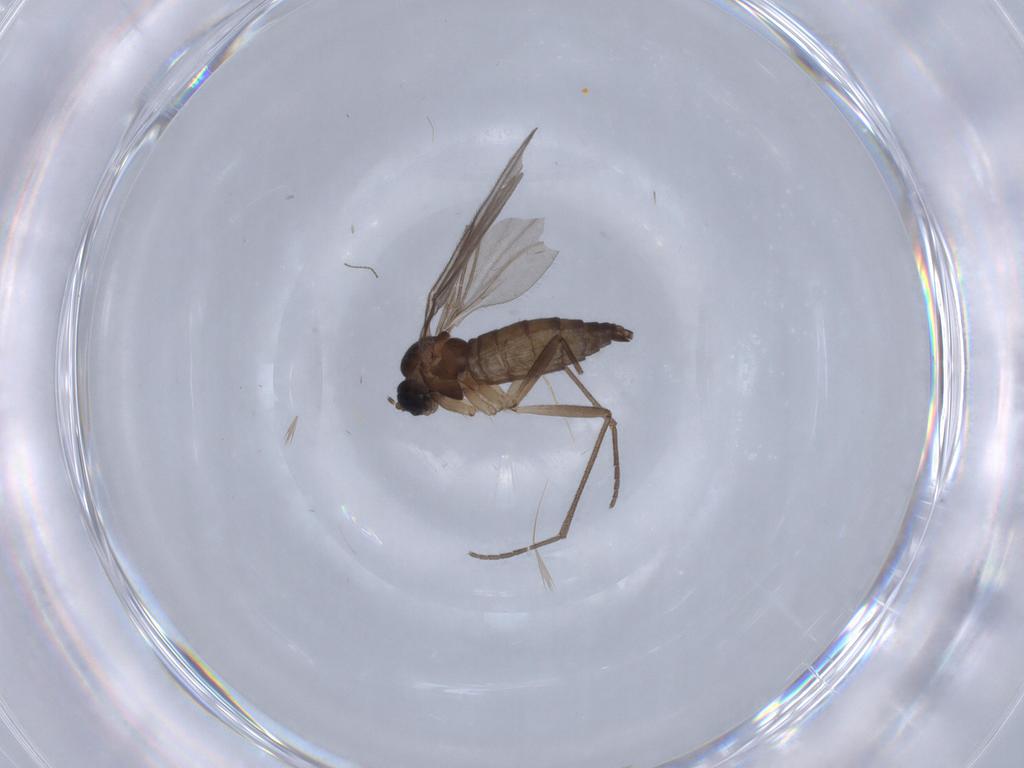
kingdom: Animalia
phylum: Arthropoda
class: Insecta
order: Diptera
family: Sciaridae
